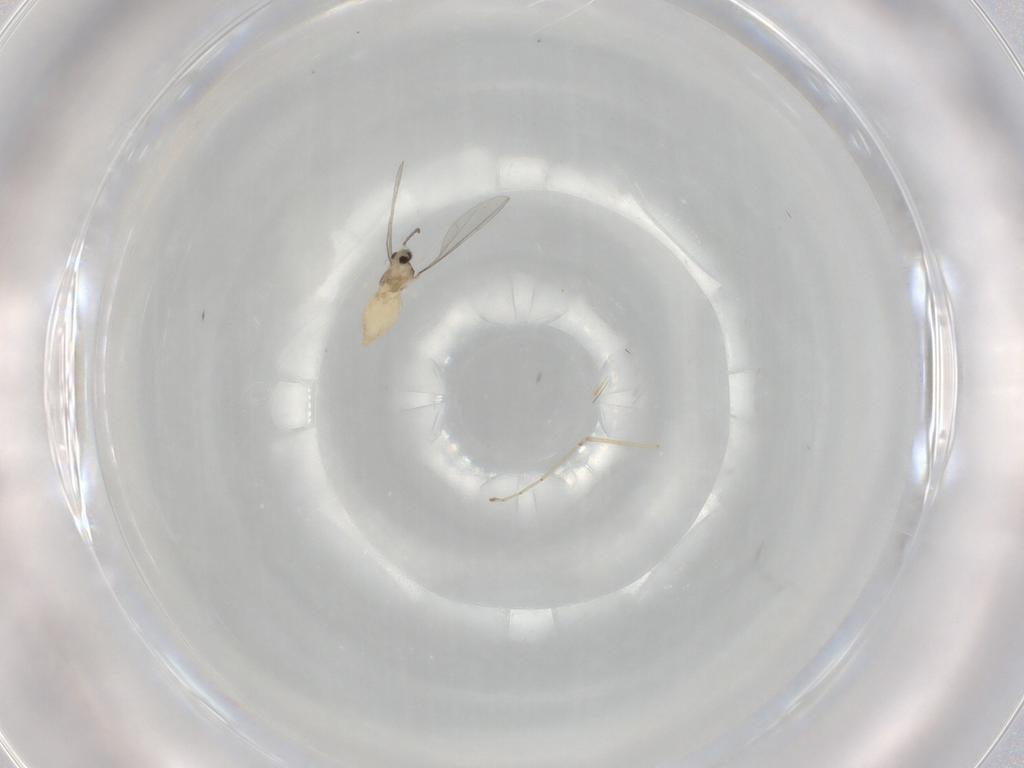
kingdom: Animalia
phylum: Arthropoda
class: Insecta
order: Diptera
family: Cecidomyiidae
